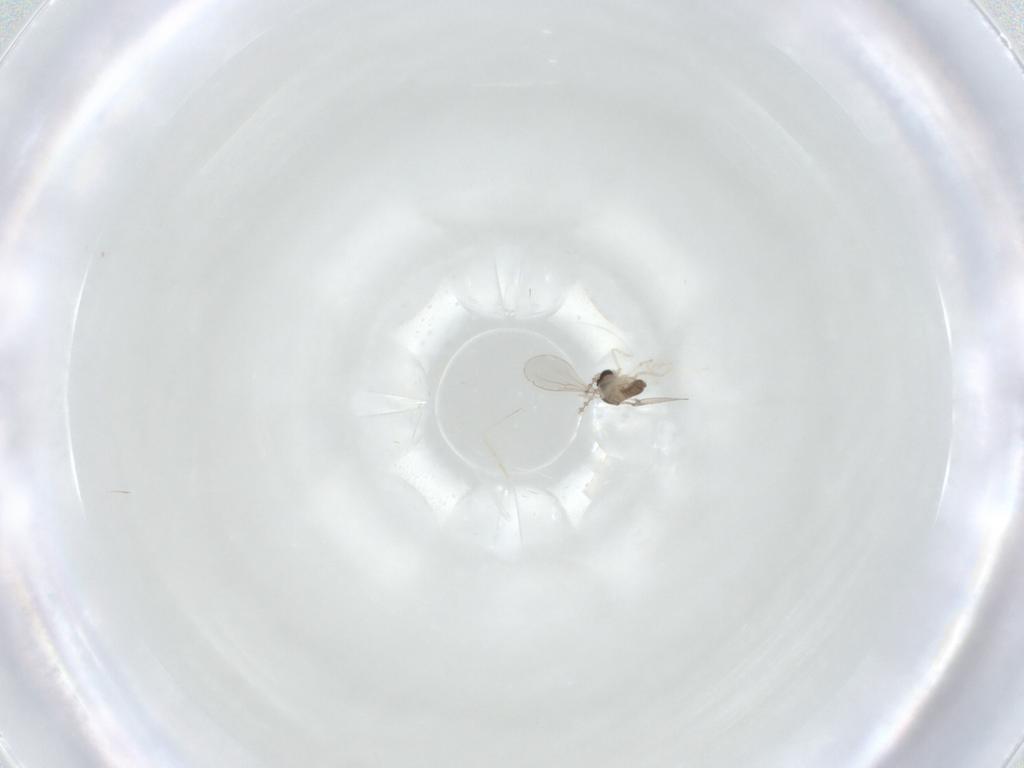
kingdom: Animalia
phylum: Arthropoda
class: Insecta
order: Diptera
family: Cecidomyiidae
